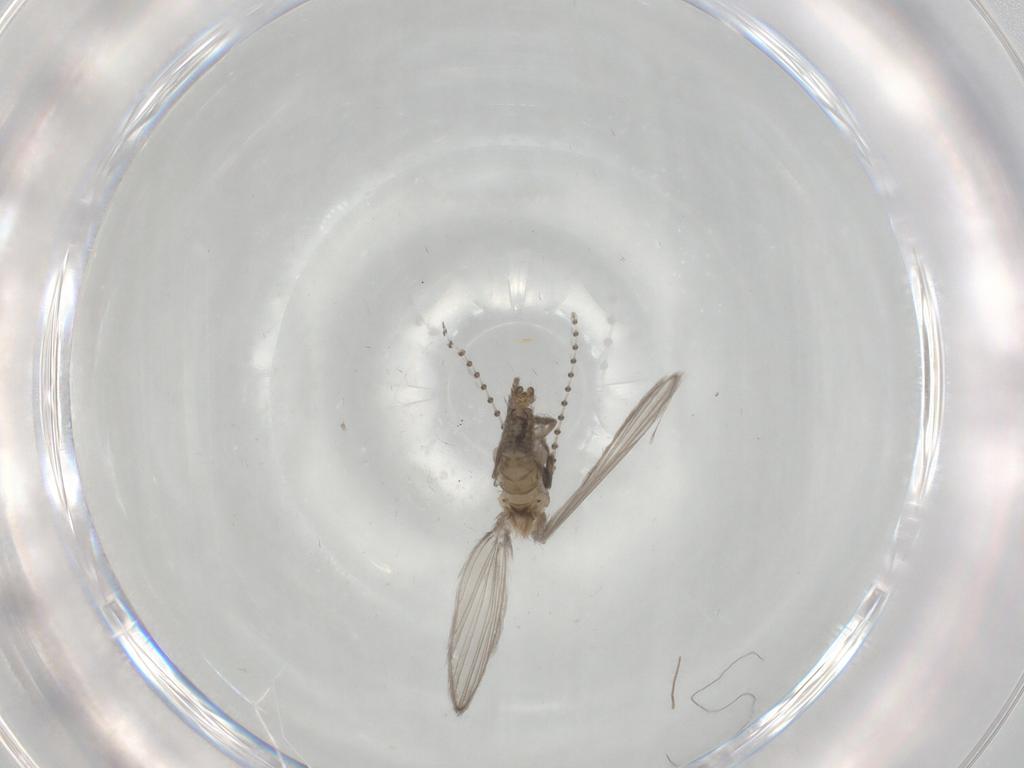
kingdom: Animalia
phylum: Arthropoda
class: Insecta
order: Diptera
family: Psychodidae
